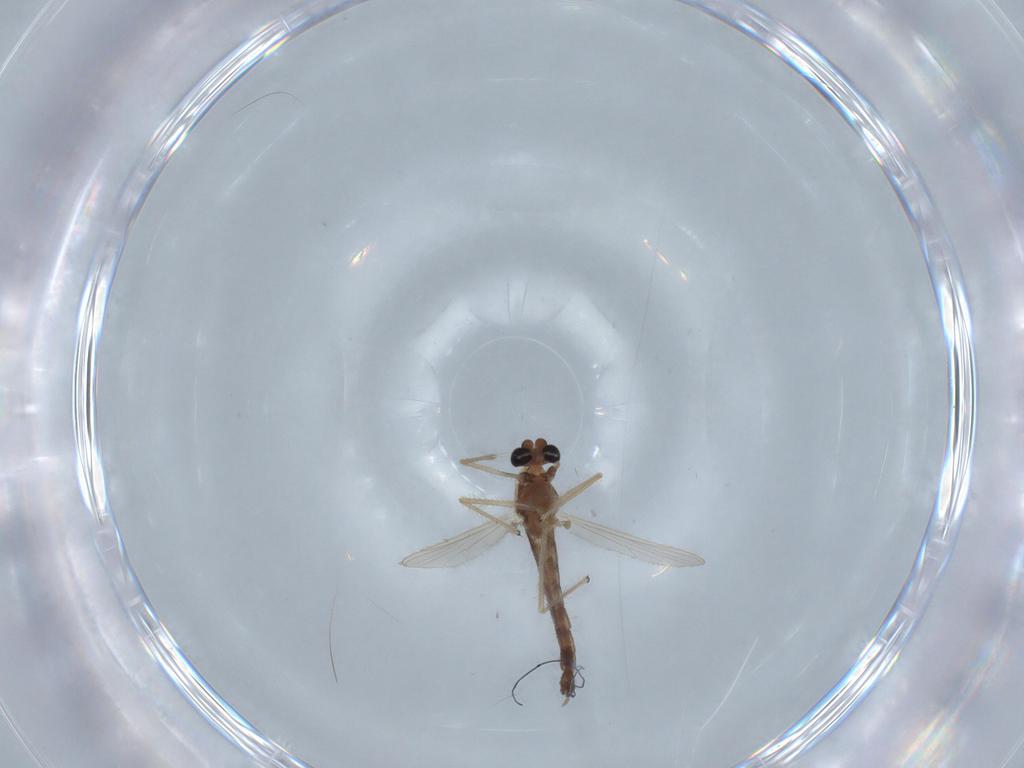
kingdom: Animalia
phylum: Arthropoda
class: Insecta
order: Diptera
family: Chironomidae
